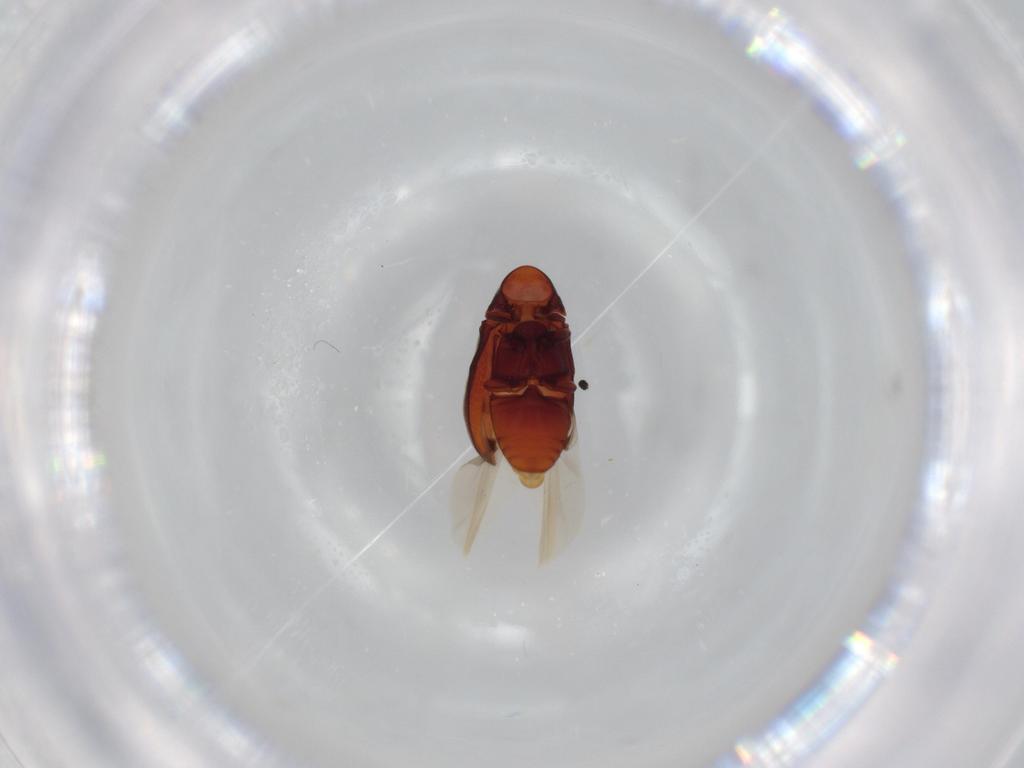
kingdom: Animalia
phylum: Arthropoda
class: Insecta
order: Coleoptera
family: Ptinidae
